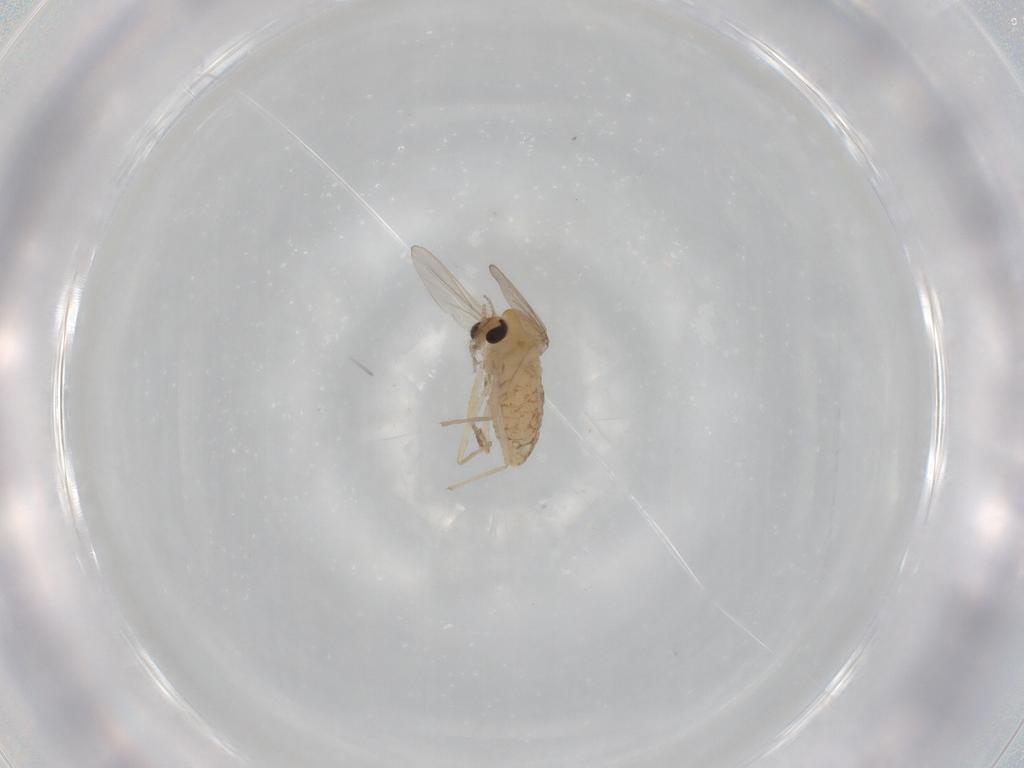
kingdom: Animalia
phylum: Arthropoda
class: Insecta
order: Diptera
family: Chironomidae
